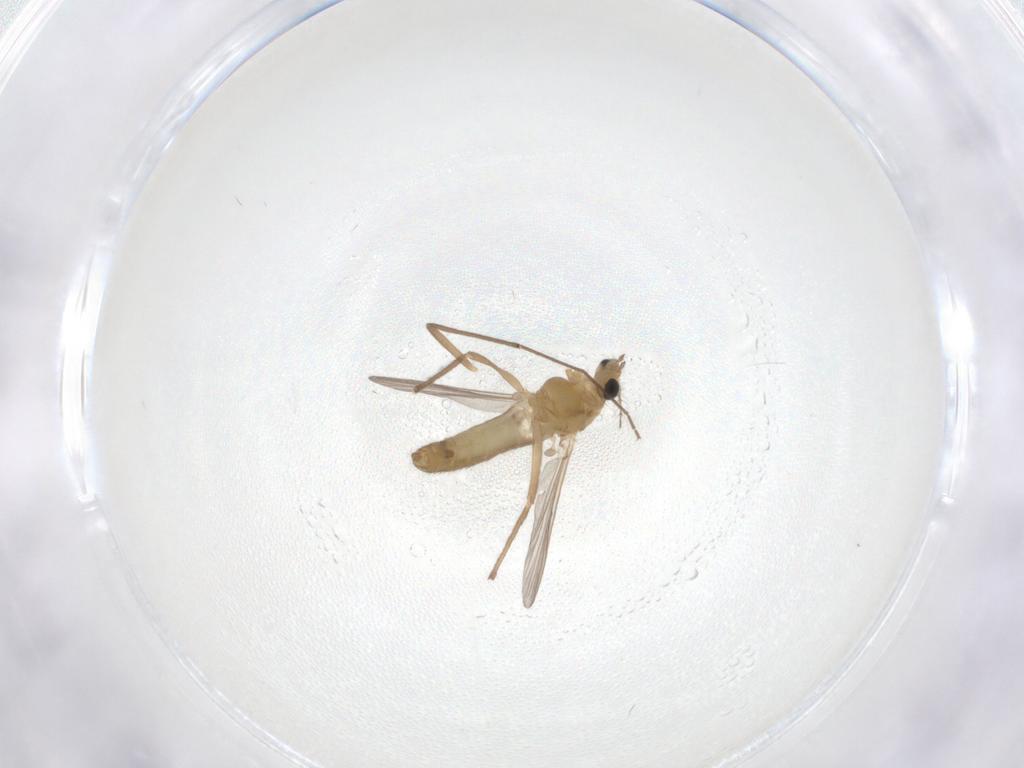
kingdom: Animalia
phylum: Arthropoda
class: Insecta
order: Diptera
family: Chironomidae
